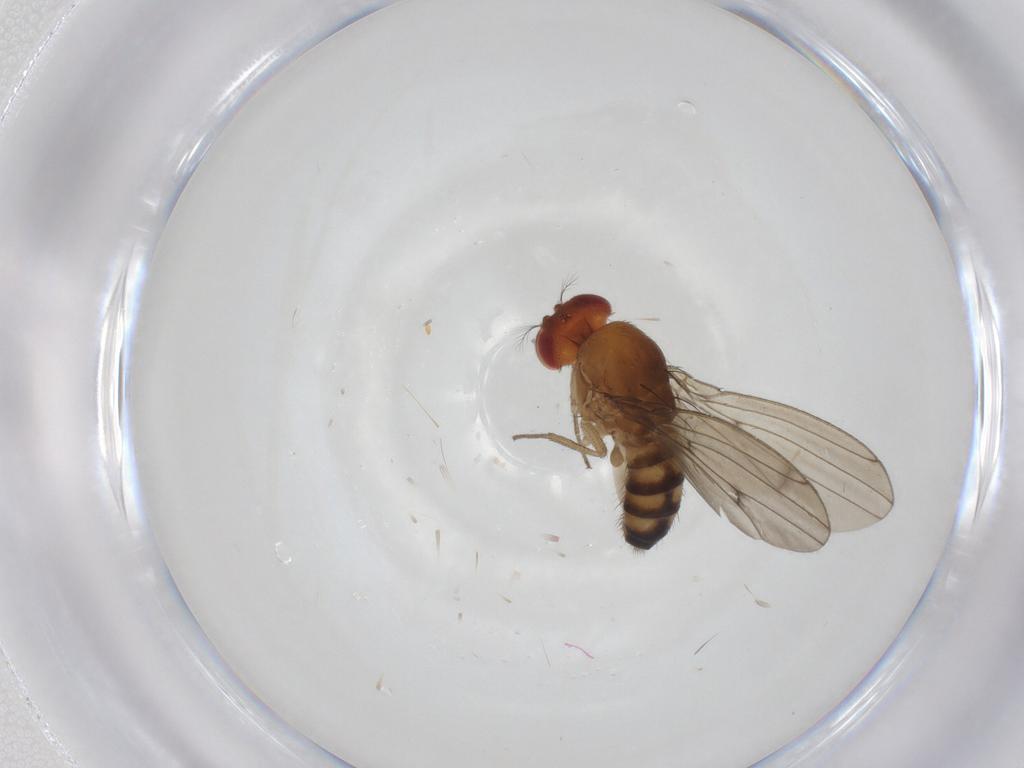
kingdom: Animalia
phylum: Arthropoda
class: Insecta
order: Diptera
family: Drosophilidae
